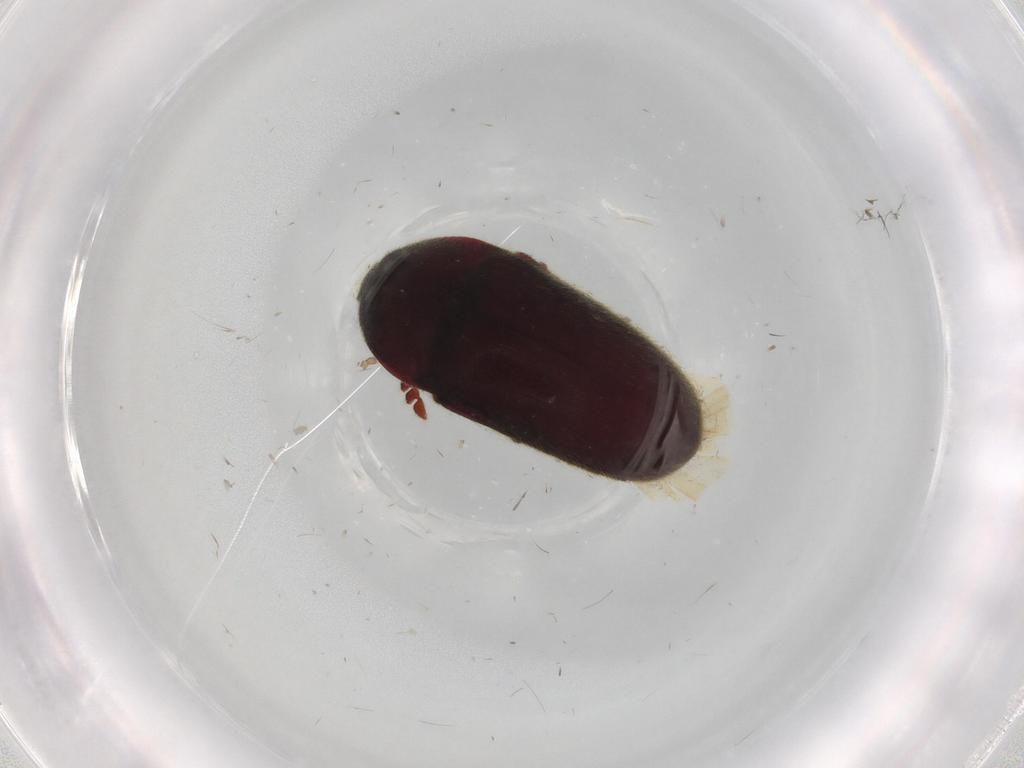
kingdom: Animalia
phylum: Arthropoda
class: Insecta
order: Coleoptera
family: Throscidae
